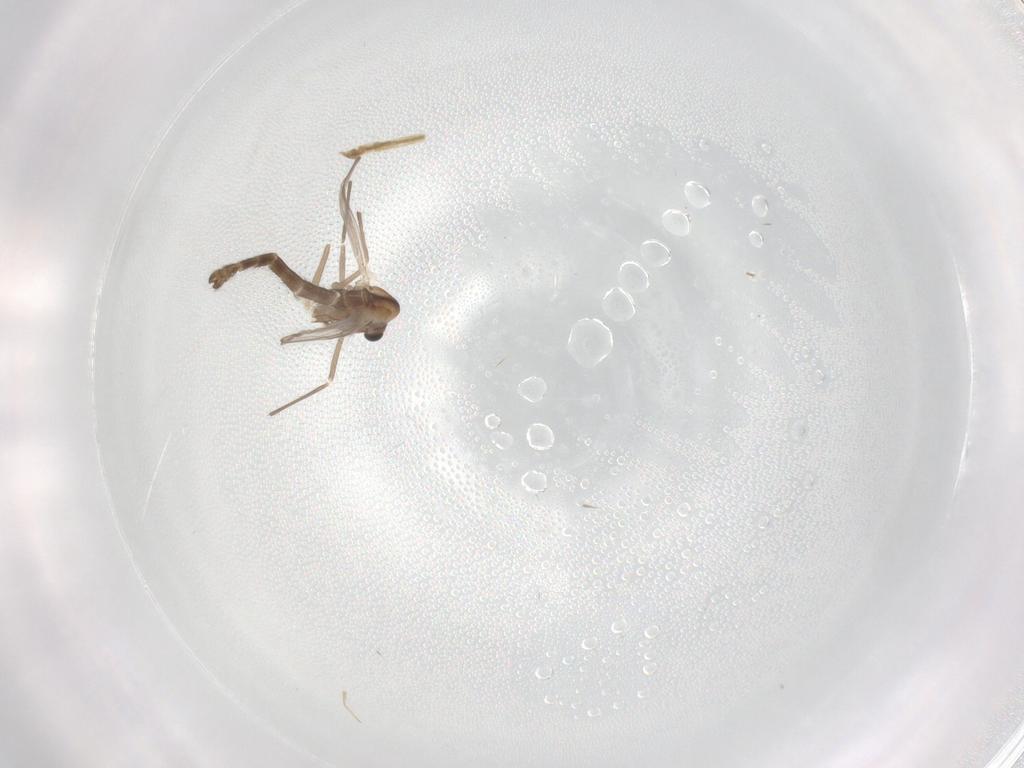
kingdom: Animalia
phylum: Arthropoda
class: Insecta
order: Diptera
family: Chironomidae
